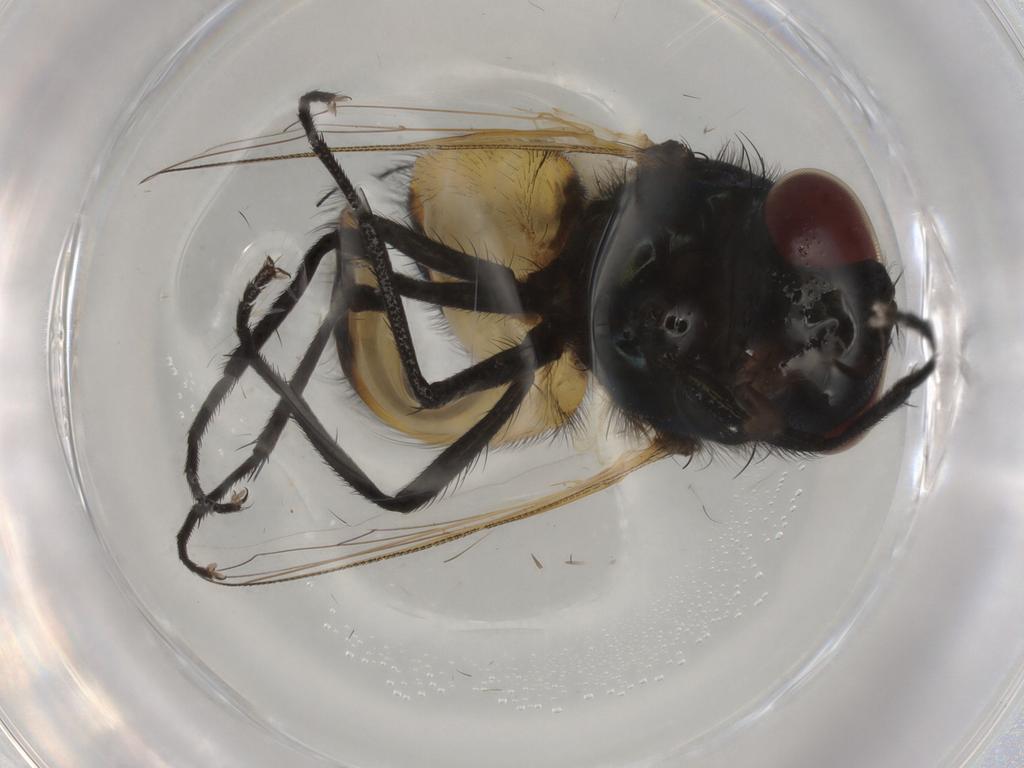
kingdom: Animalia
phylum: Arthropoda
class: Insecta
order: Diptera
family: Muscidae
